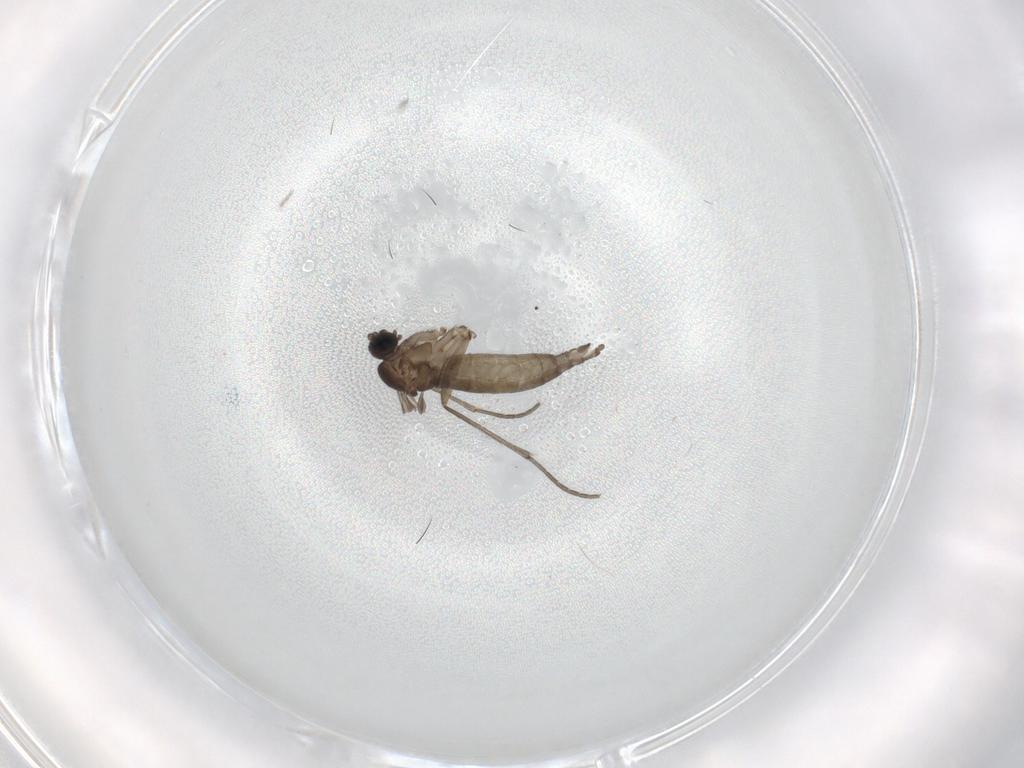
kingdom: Animalia
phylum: Arthropoda
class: Insecta
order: Diptera
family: Sciaridae
